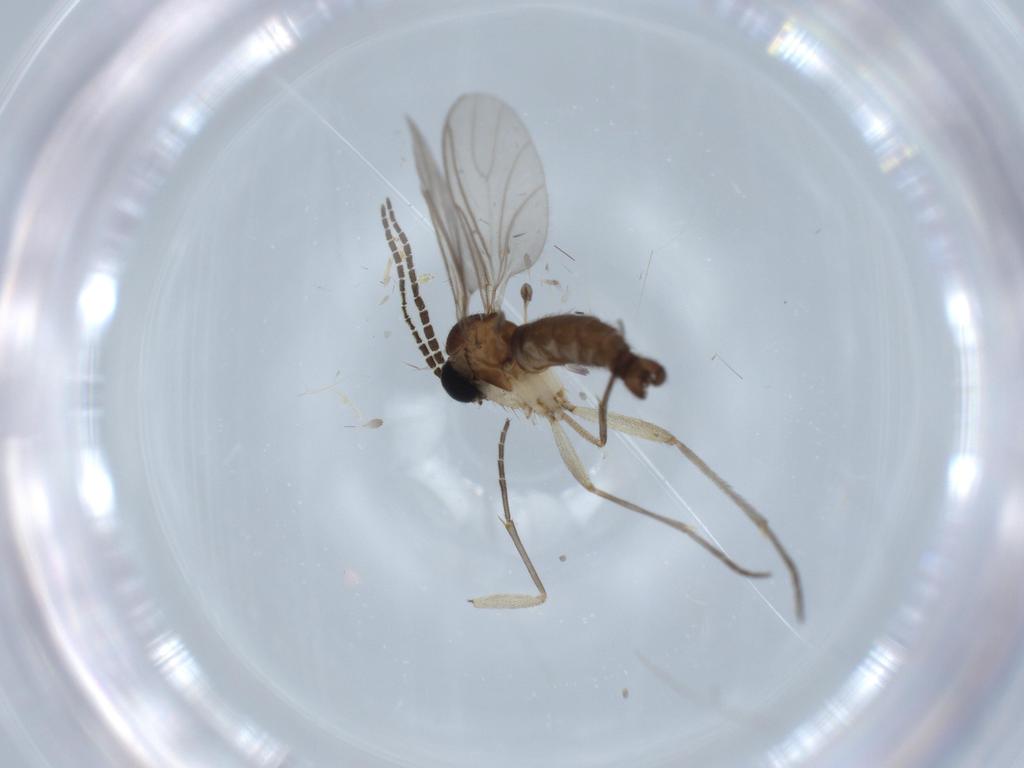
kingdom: Animalia
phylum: Arthropoda
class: Insecta
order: Diptera
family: Sciaridae
